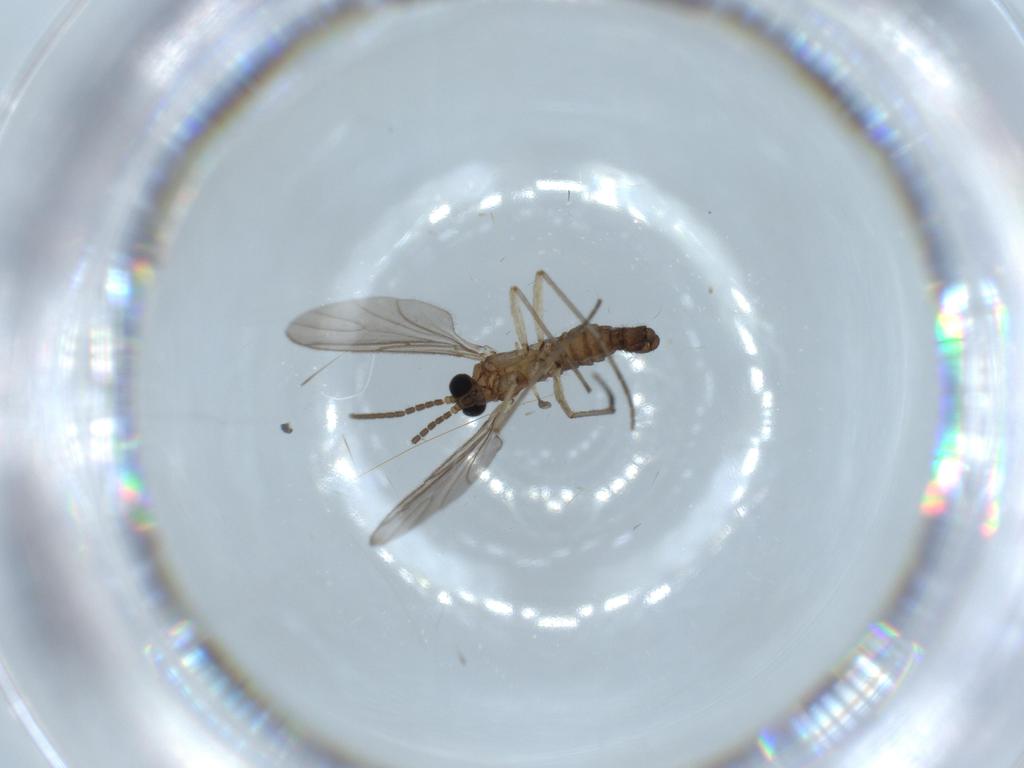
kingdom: Animalia
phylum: Arthropoda
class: Insecta
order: Diptera
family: Sciaridae
